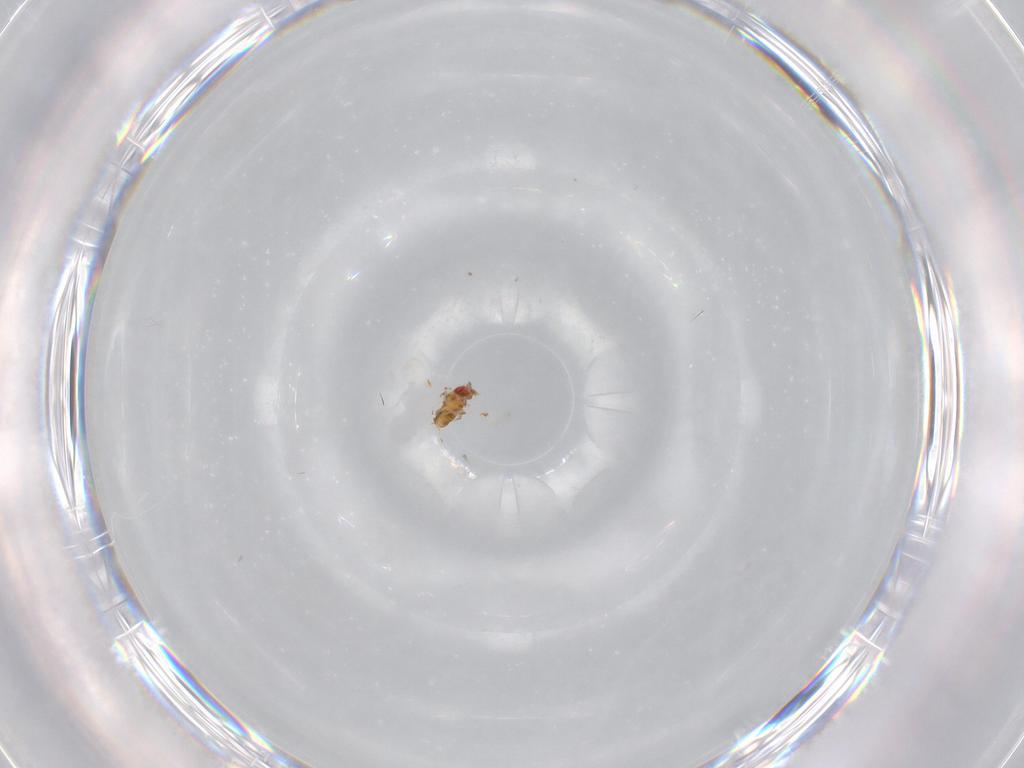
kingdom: Animalia
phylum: Arthropoda
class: Insecta
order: Hymenoptera
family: Trichogrammatidae
